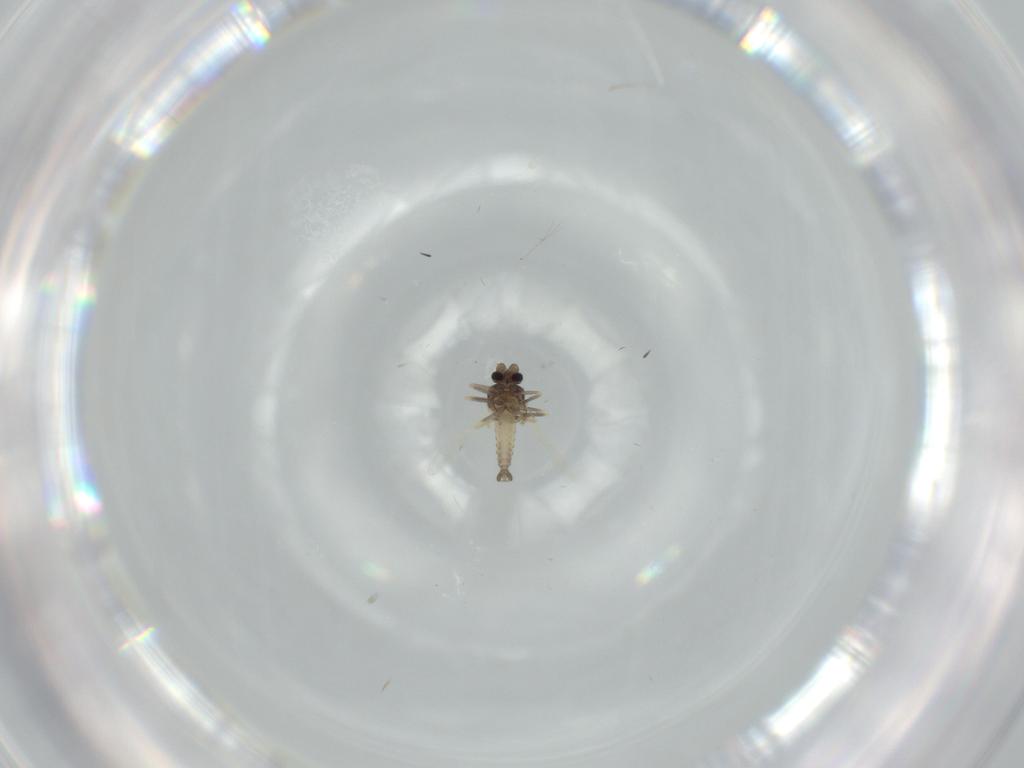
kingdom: Animalia
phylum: Arthropoda
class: Insecta
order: Diptera
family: Ceratopogonidae
